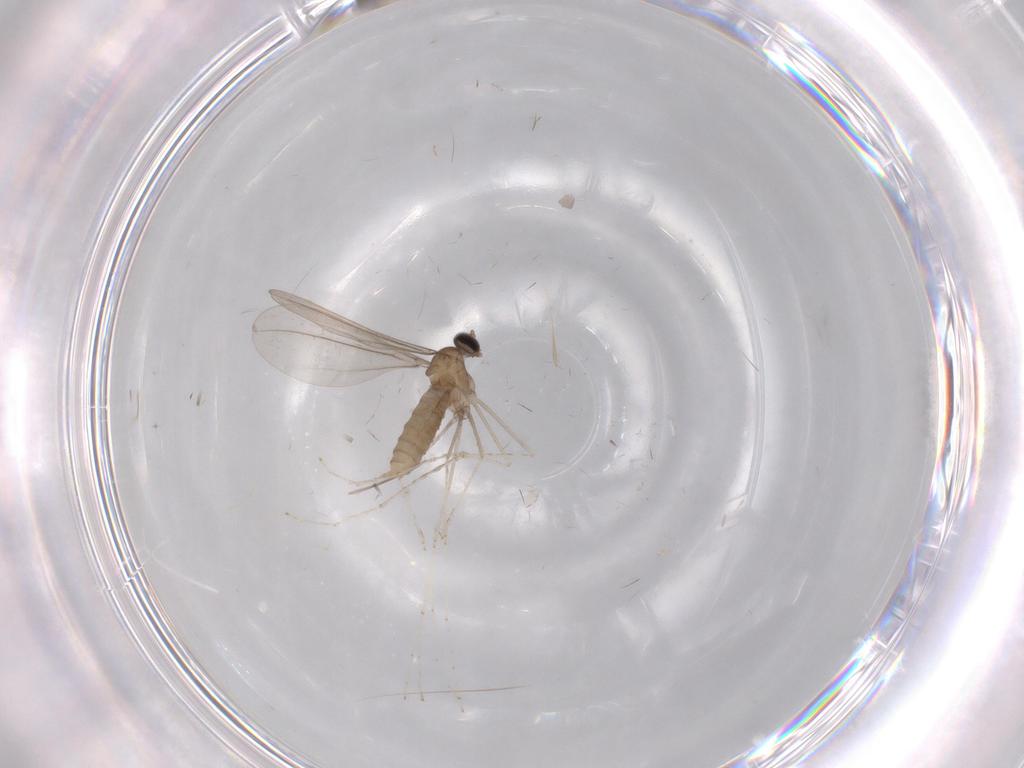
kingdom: Animalia
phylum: Arthropoda
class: Insecta
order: Diptera
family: Cecidomyiidae
